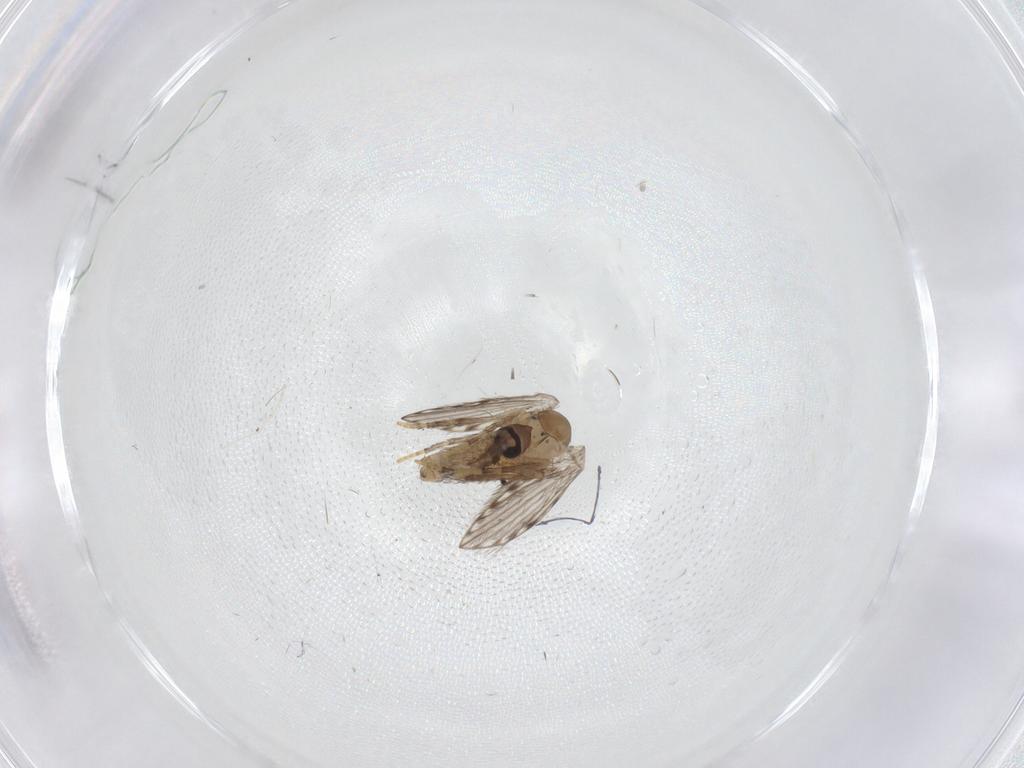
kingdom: Animalia
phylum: Arthropoda
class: Insecta
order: Diptera
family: Psychodidae
